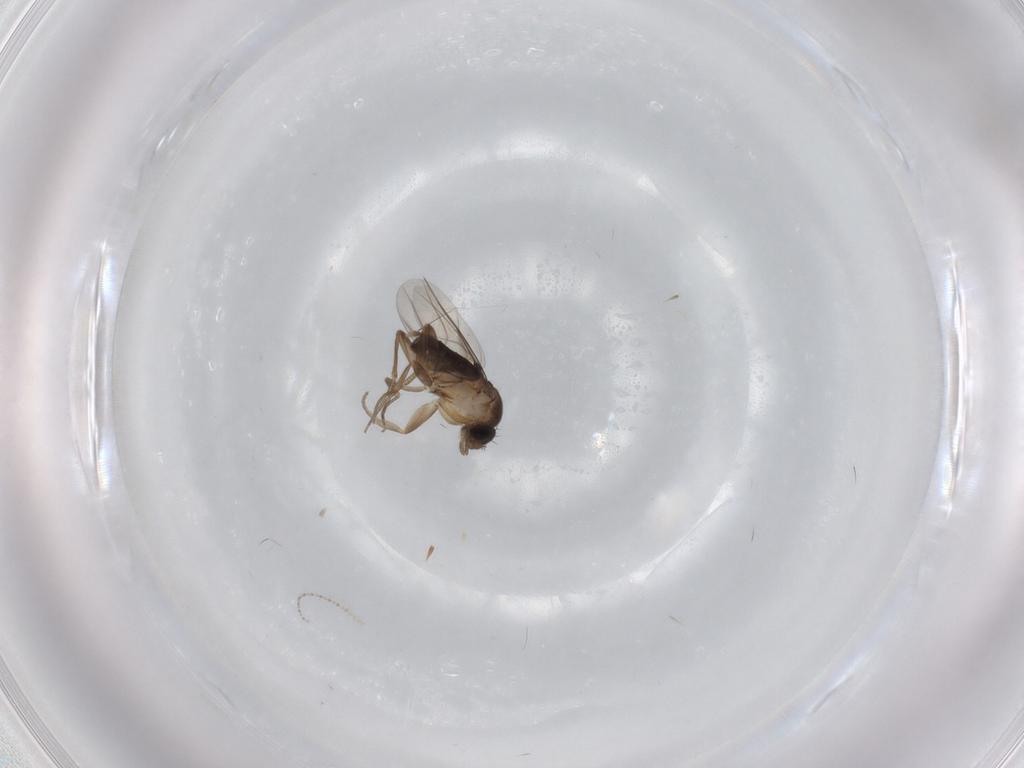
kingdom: Animalia
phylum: Arthropoda
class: Insecta
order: Diptera
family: Phoridae
